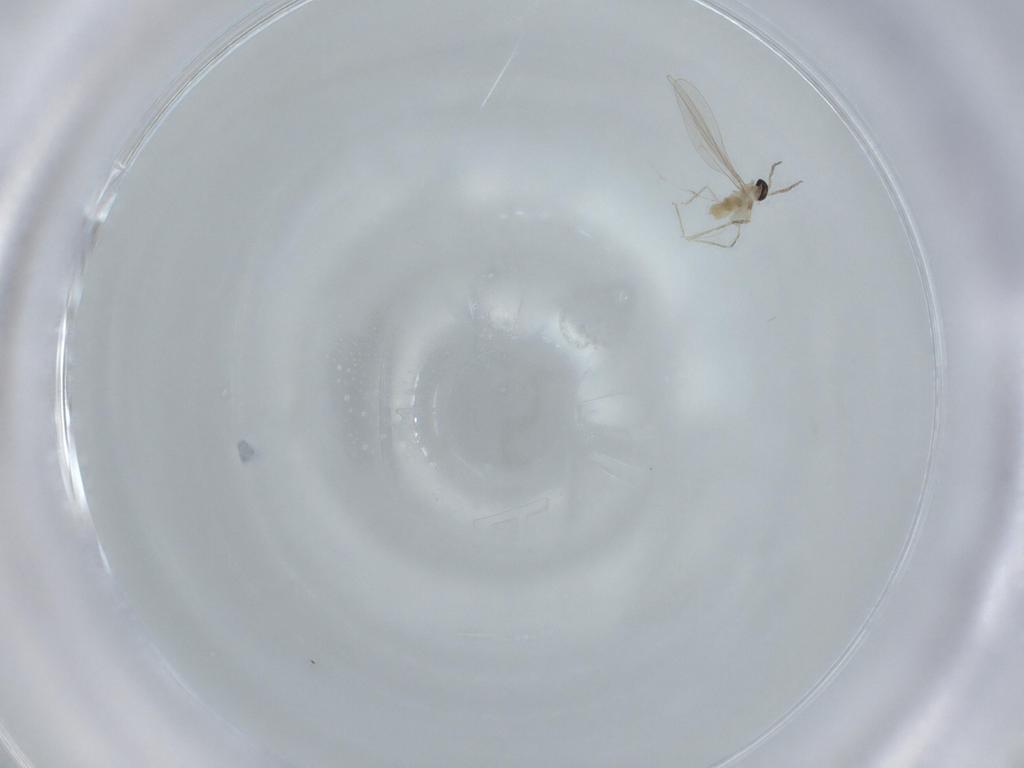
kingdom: Animalia
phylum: Arthropoda
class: Insecta
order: Diptera
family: Cecidomyiidae
